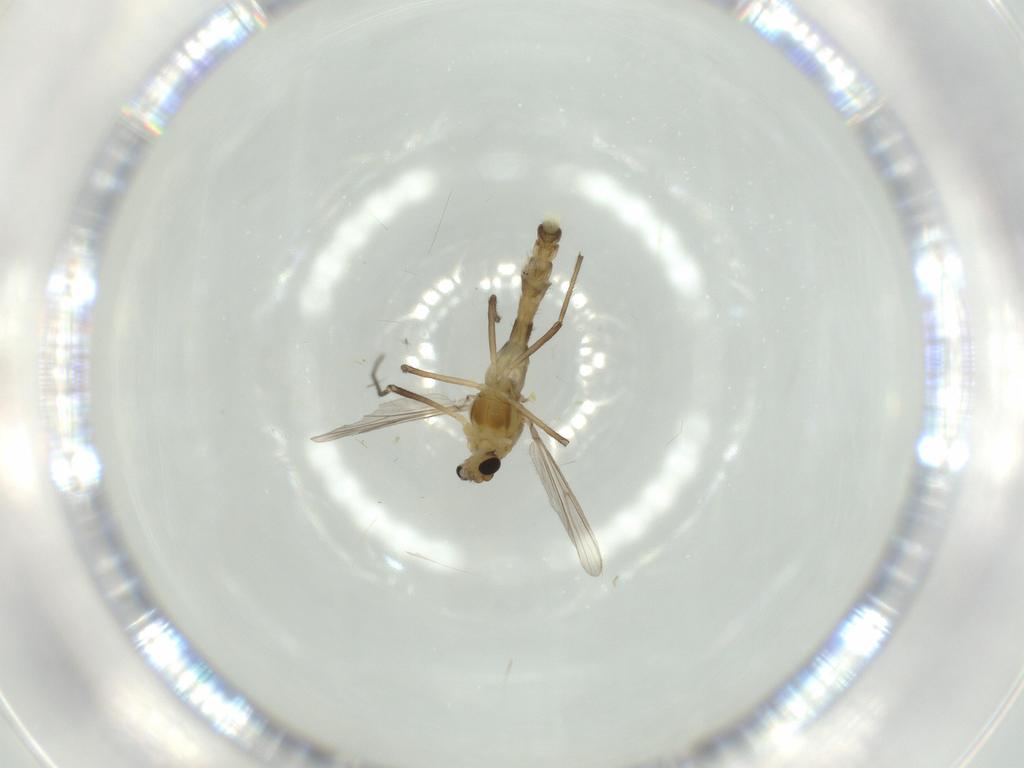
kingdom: Animalia
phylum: Arthropoda
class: Insecta
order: Diptera
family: Chironomidae
